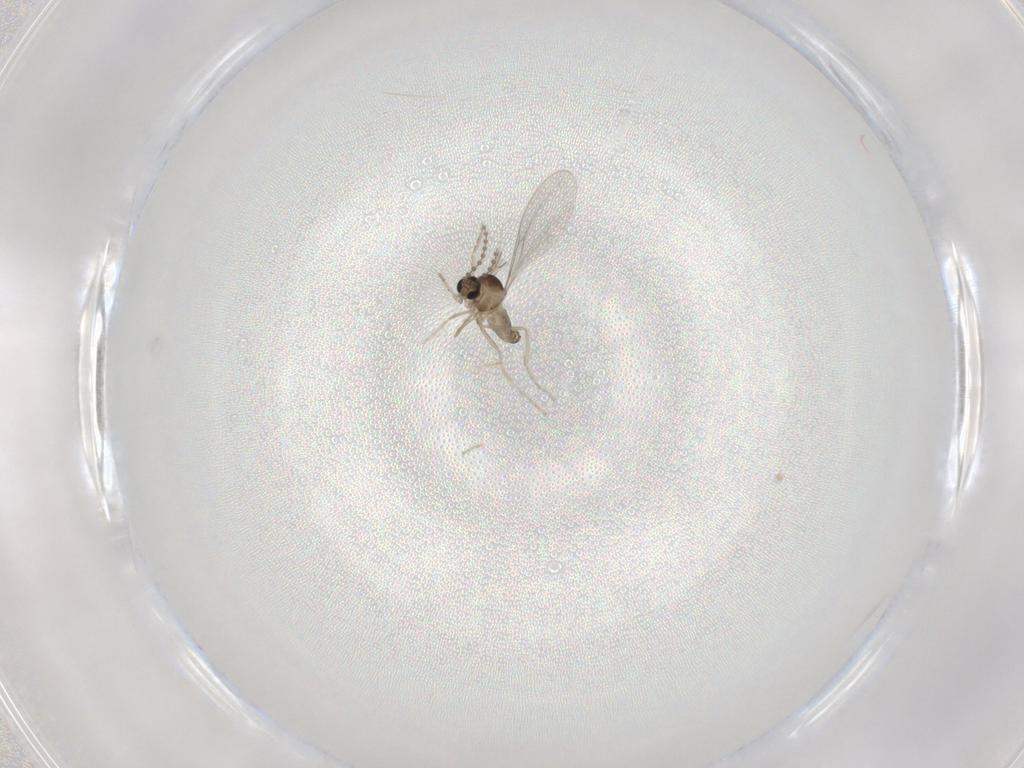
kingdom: Animalia
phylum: Arthropoda
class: Insecta
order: Diptera
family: Cecidomyiidae
